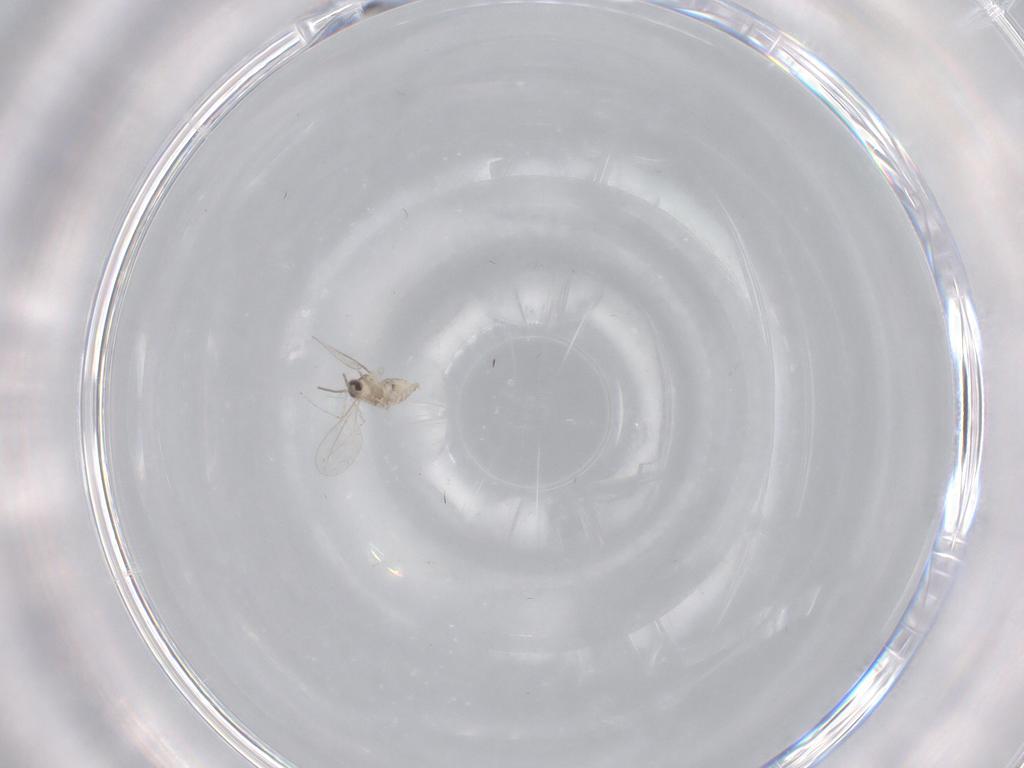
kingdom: Animalia
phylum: Arthropoda
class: Insecta
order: Diptera
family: Cecidomyiidae
